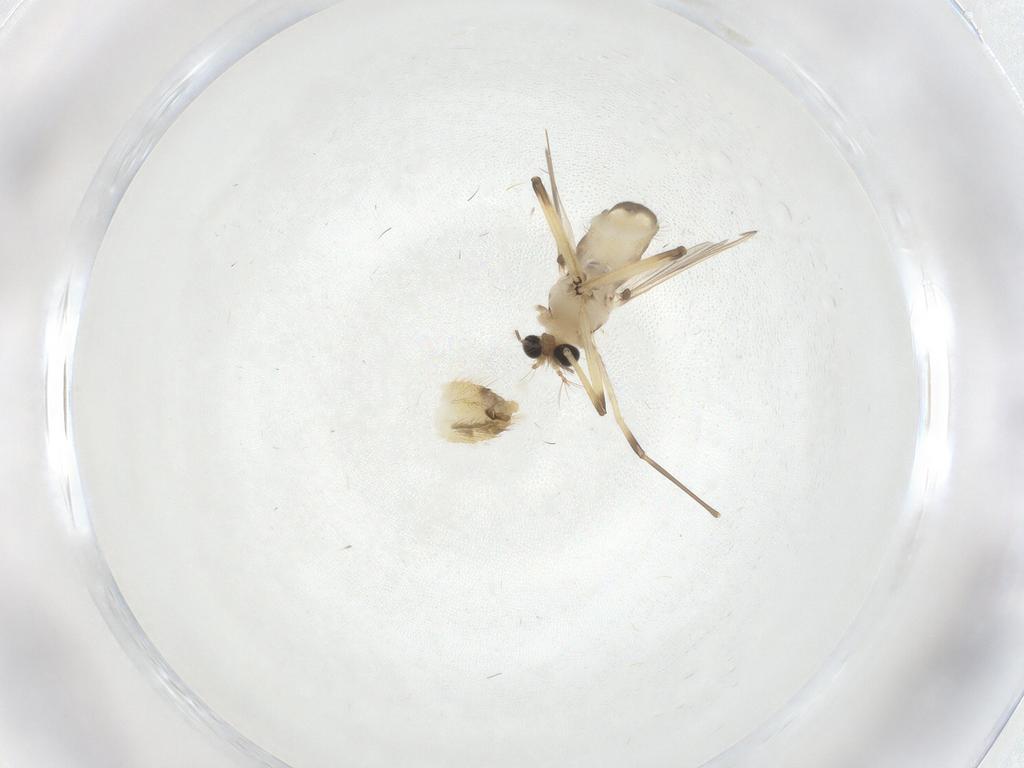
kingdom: Animalia
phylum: Arthropoda
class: Insecta
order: Diptera
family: Chironomidae
